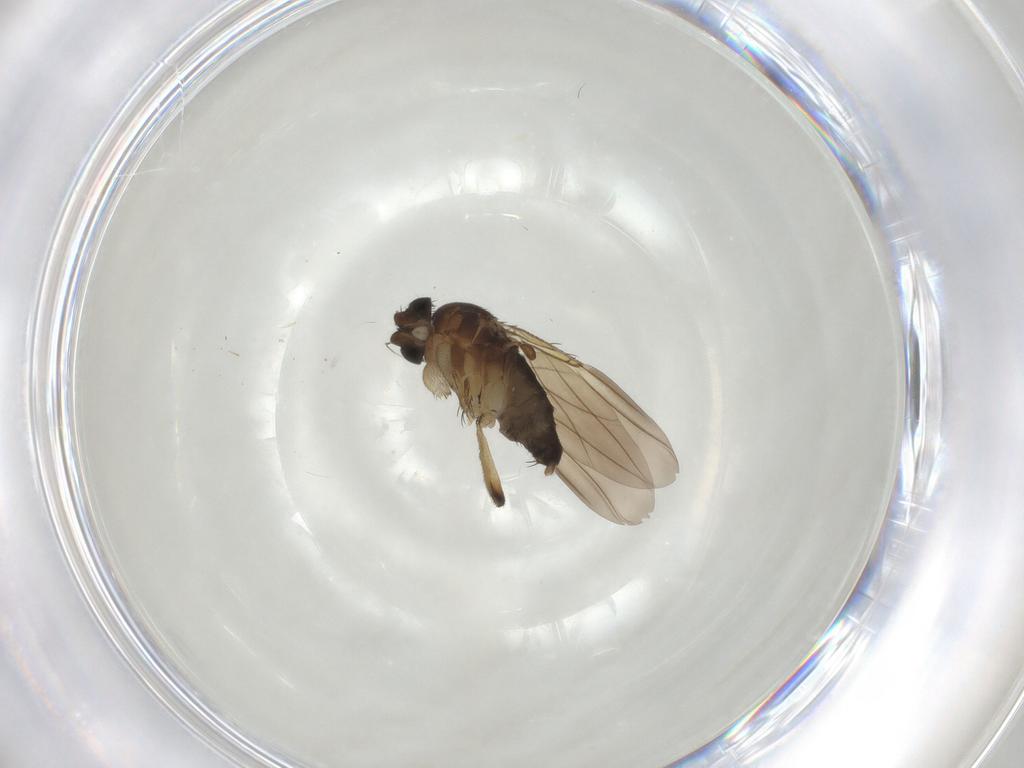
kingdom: Animalia
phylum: Arthropoda
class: Insecta
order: Diptera
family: Phoridae
